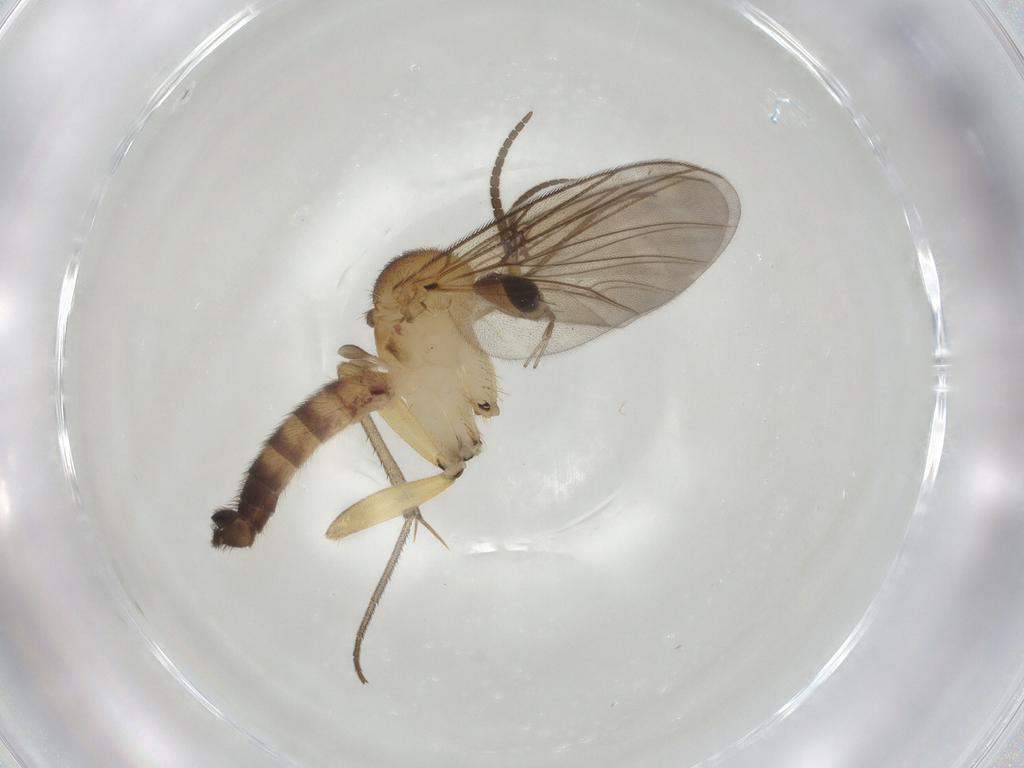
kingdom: Animalia
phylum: Arthropoda
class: Insecta
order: Diptera
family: Mycetophilidae
